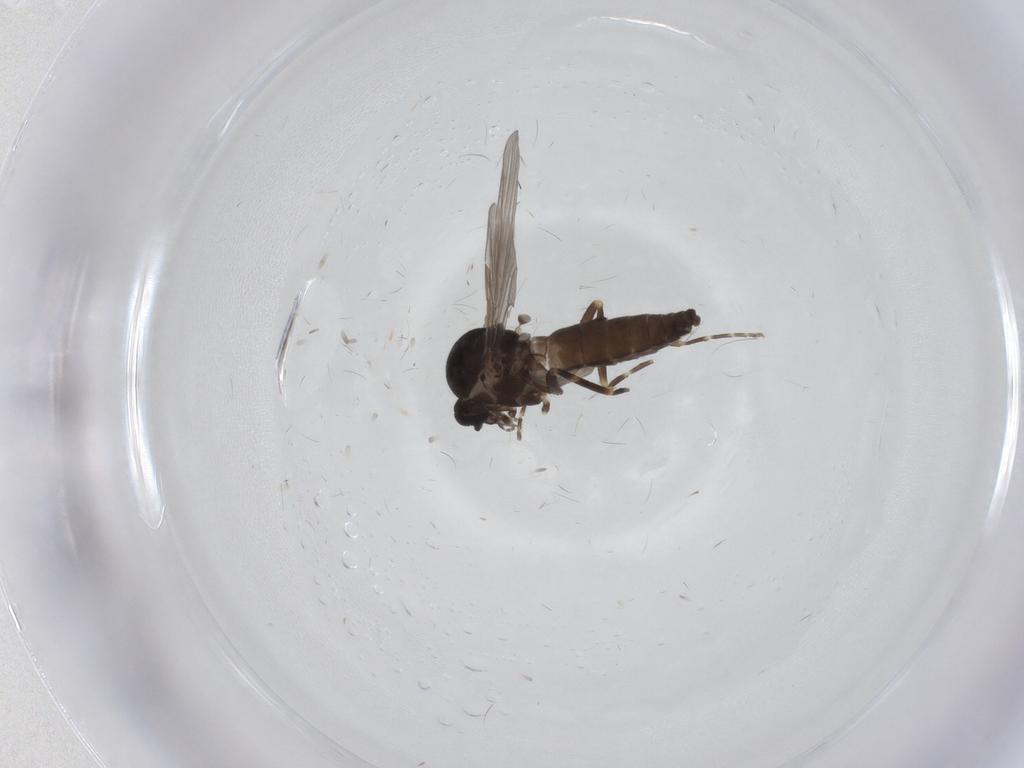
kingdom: Animalia
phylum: Arthropoda
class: Insecta
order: Diptera
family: Ceratopogonidae
